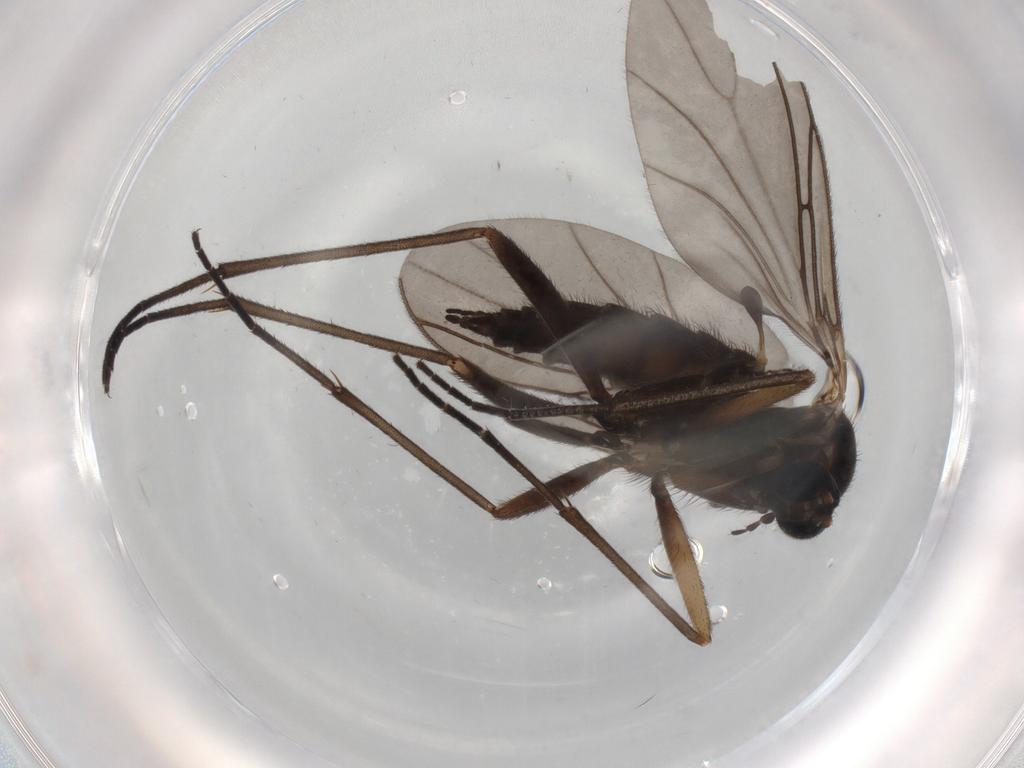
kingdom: Animalia
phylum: Arthropoda
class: Insecta
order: Diptera
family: Sciaridae
